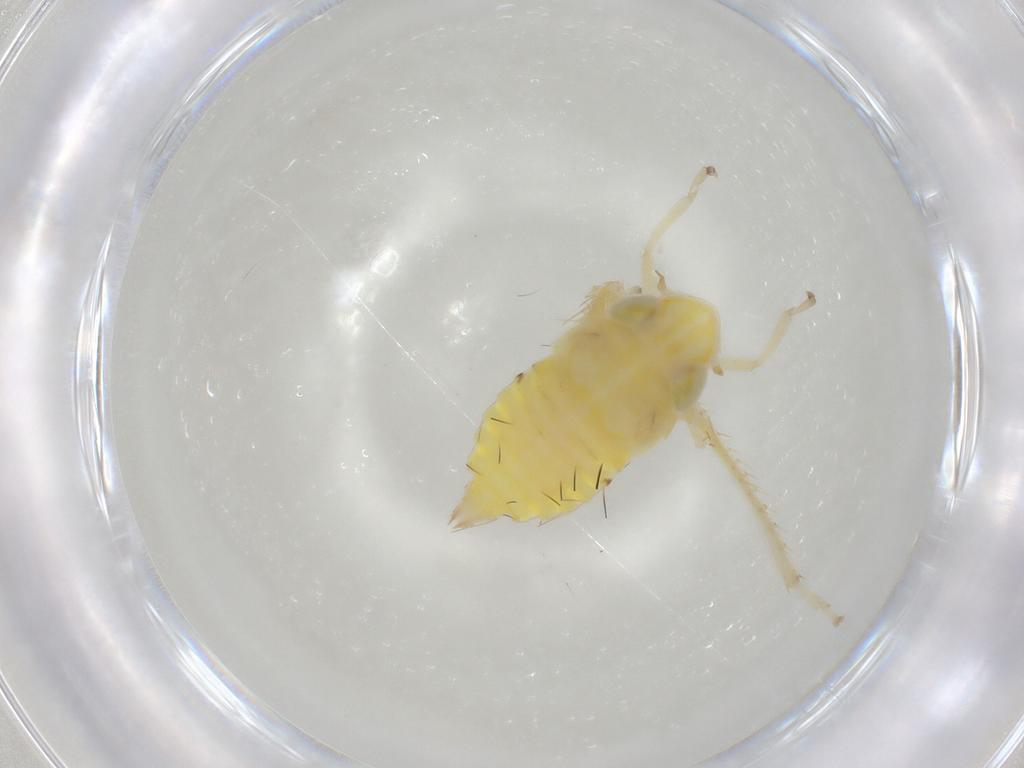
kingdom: Animalia
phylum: Arthropoda
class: Insecta
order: Hemiptera
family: Cicadellidae
